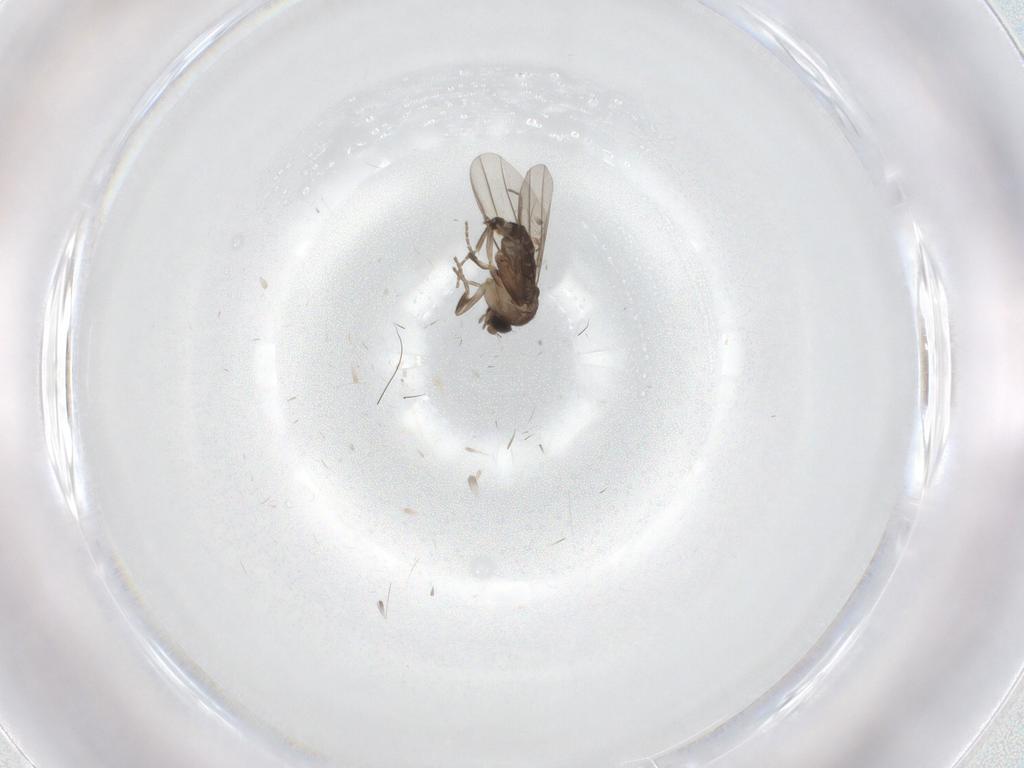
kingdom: Animalia
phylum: Arthropoda
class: Insecta
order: Diptera
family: Phoridae
